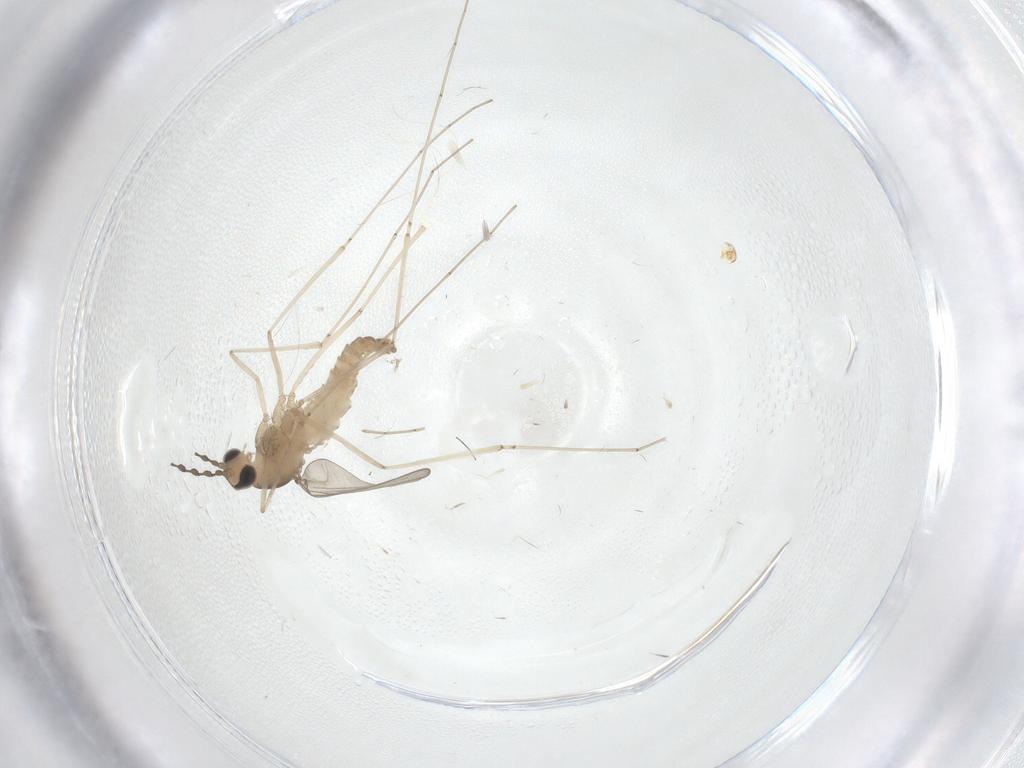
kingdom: Animalia
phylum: Arthropoda
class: Insecta
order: Diptera
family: Cecidomyiidae
